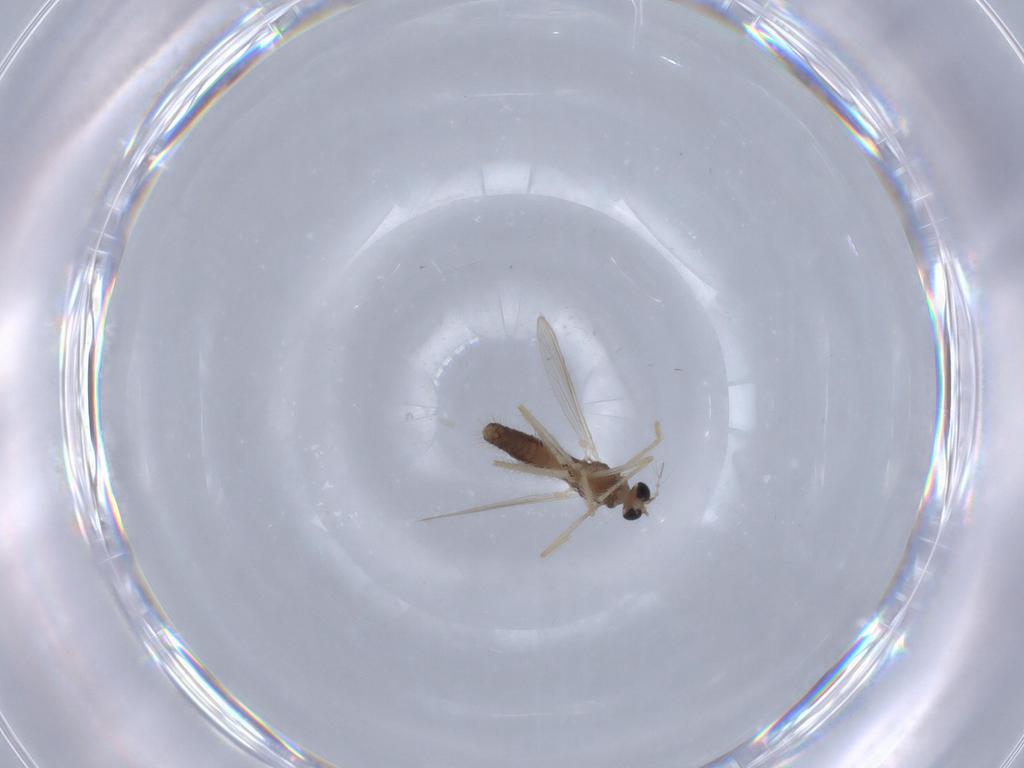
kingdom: Animalia
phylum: Arthropoda
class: Insecta
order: Diptera
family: Chironomidae
